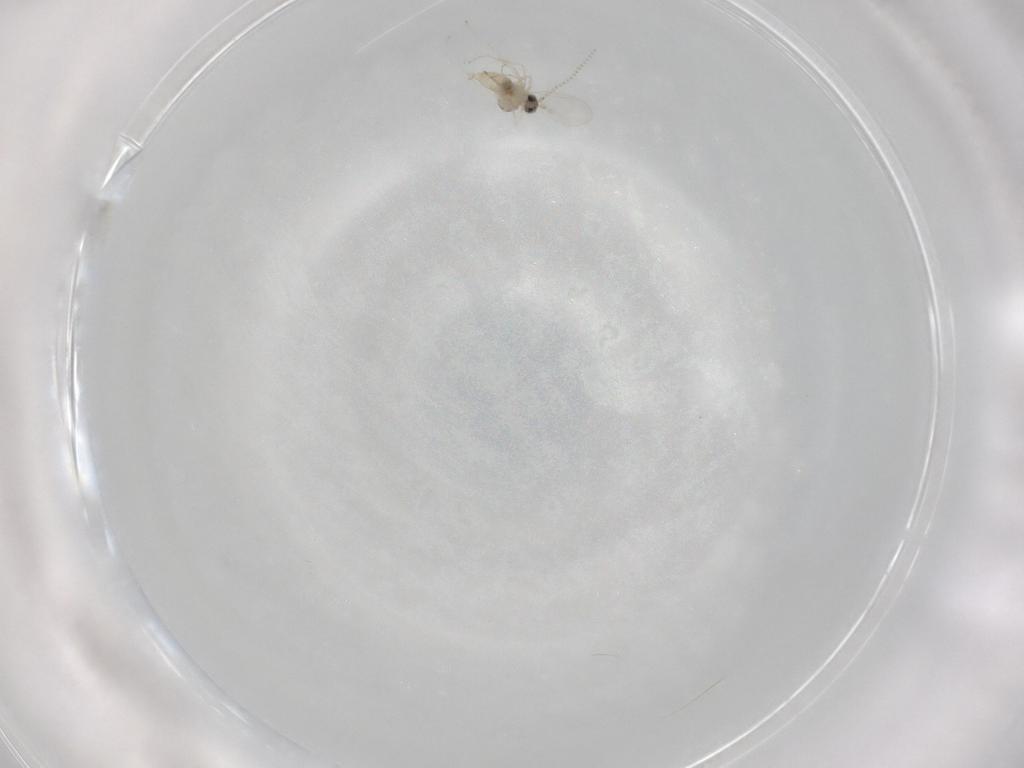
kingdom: Animalia
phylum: Arthropoda
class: Insecta
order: Diptera
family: Cecidomyiidae
